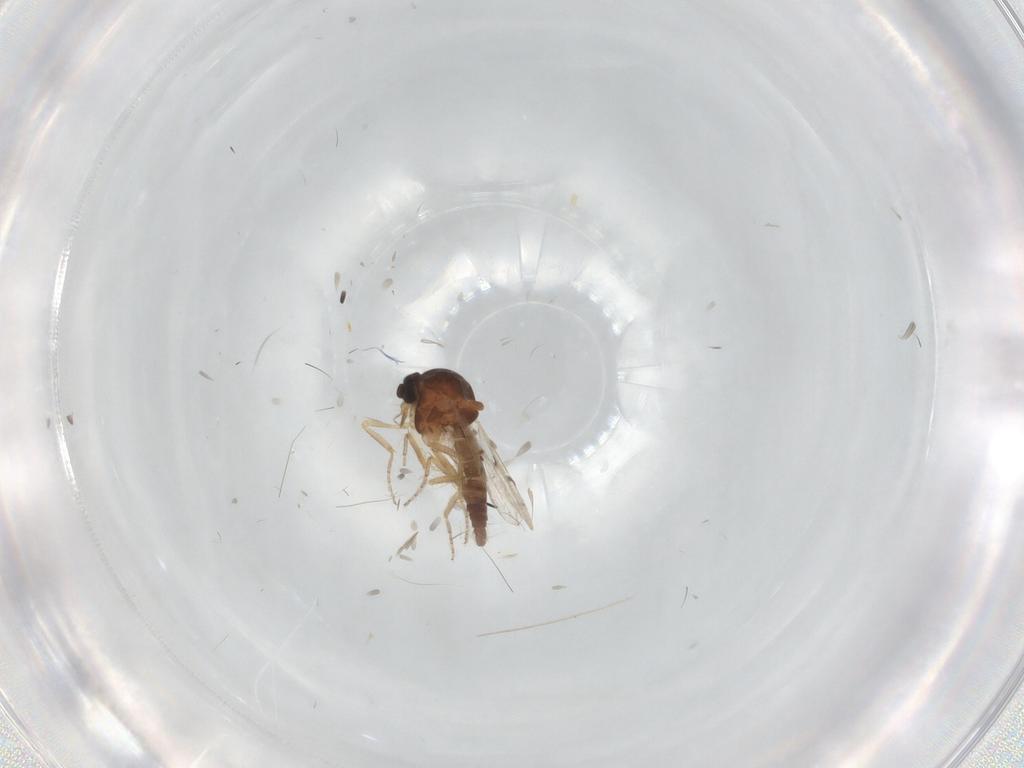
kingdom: Animalia
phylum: Arthropoda
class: Insecta
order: Diptera
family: Ceratopogonidae
